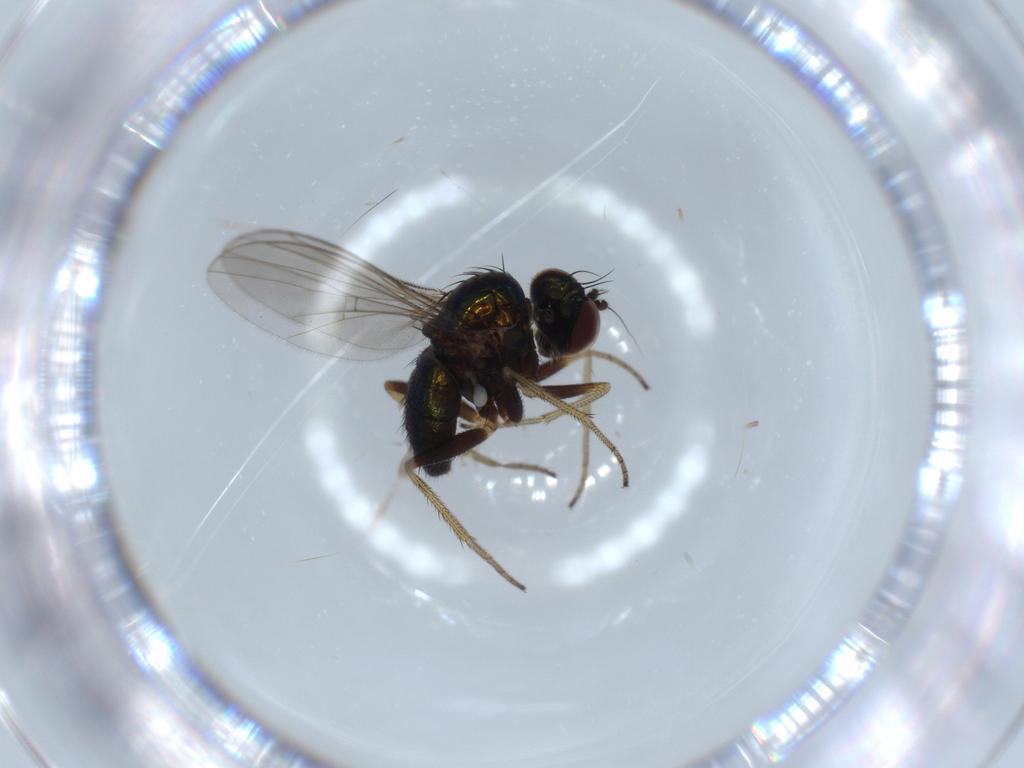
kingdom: Animalia
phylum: Arthropoda
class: Insecta
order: Diptera
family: Dolichopodidae
